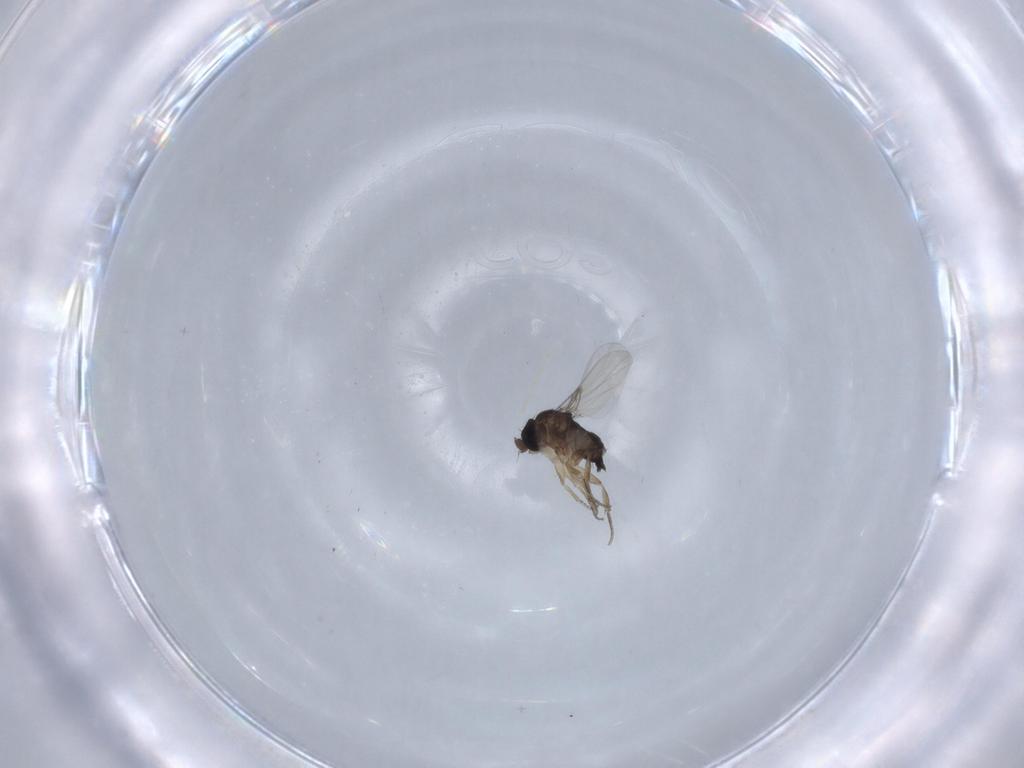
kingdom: Animalia
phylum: Arthropoda
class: Insecta
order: Diptera
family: Phoridae
